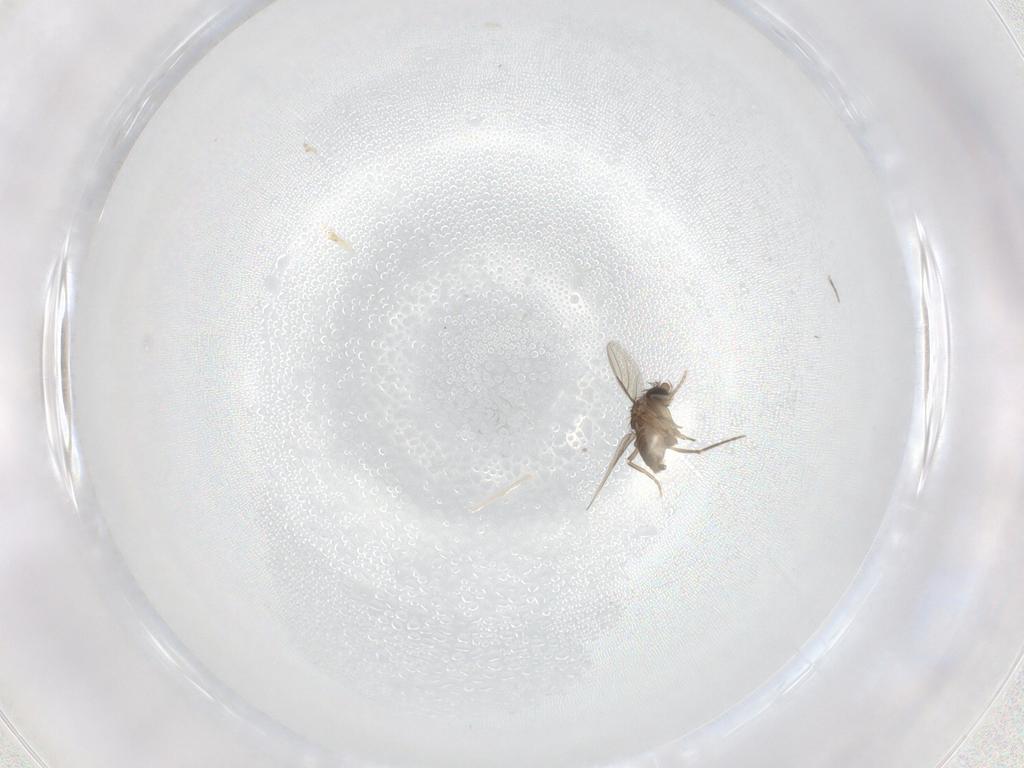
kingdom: Animalia
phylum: Arthropoda
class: Insecta
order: Diptera
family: Phoridae
